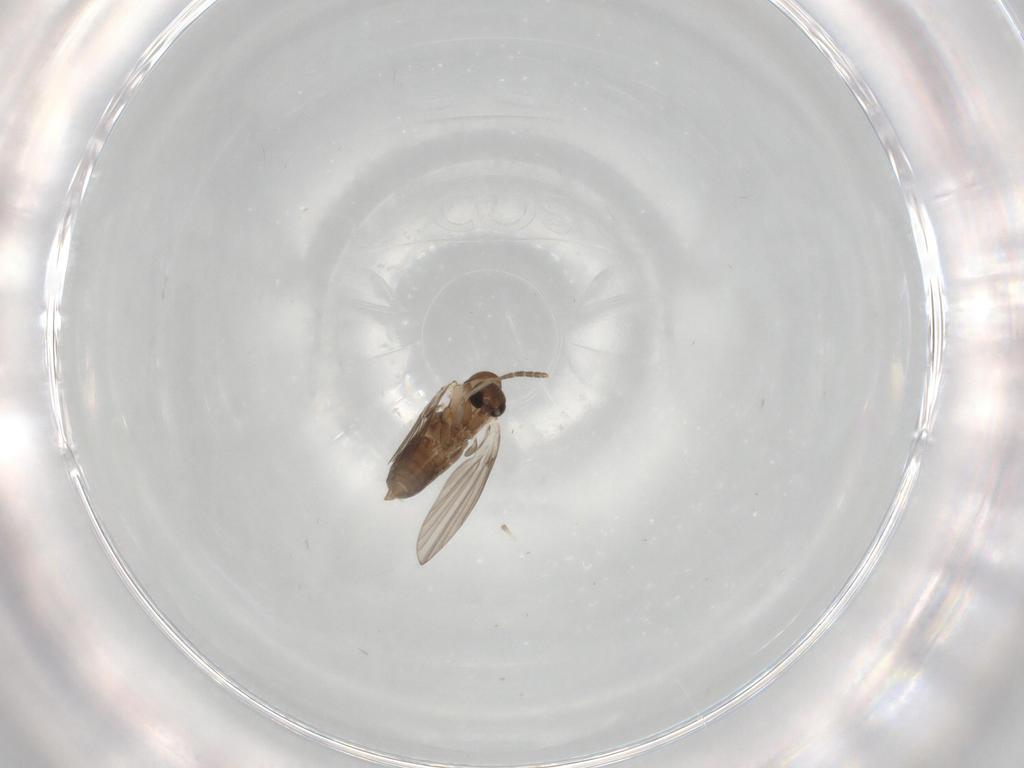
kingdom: Animalia
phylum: Arthropoda
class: Insecta
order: Diptera
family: Psychodidae
